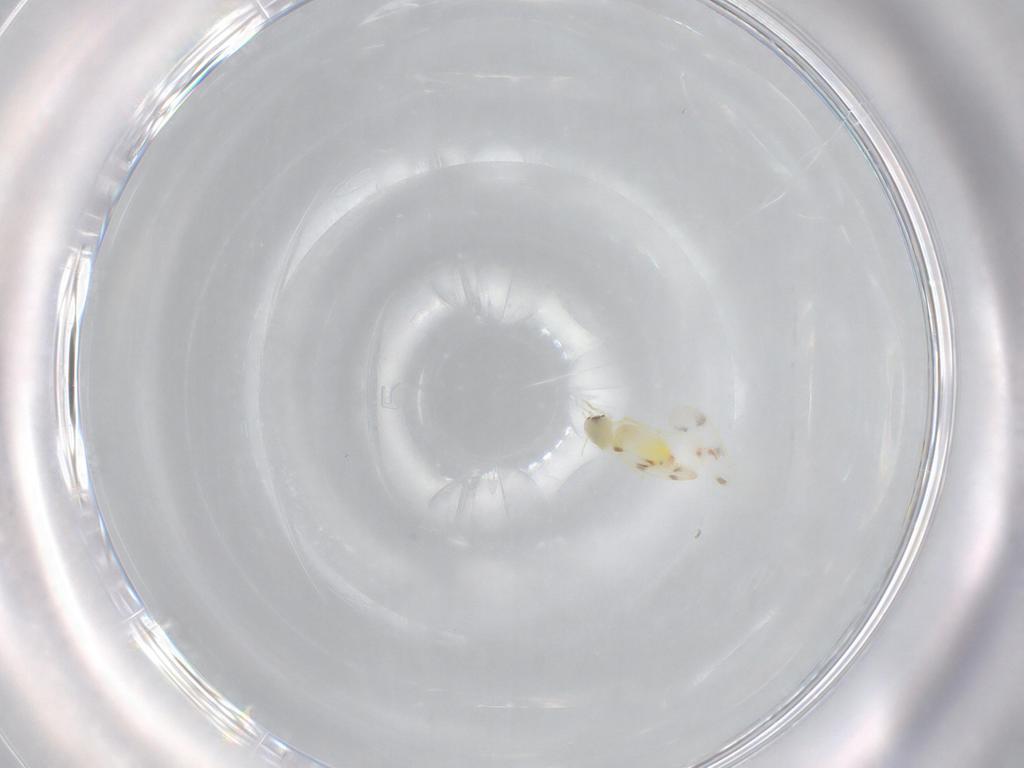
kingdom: Animalia
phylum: Arthropoda
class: Insecta
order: Hemiptera
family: Aleyrodidae
